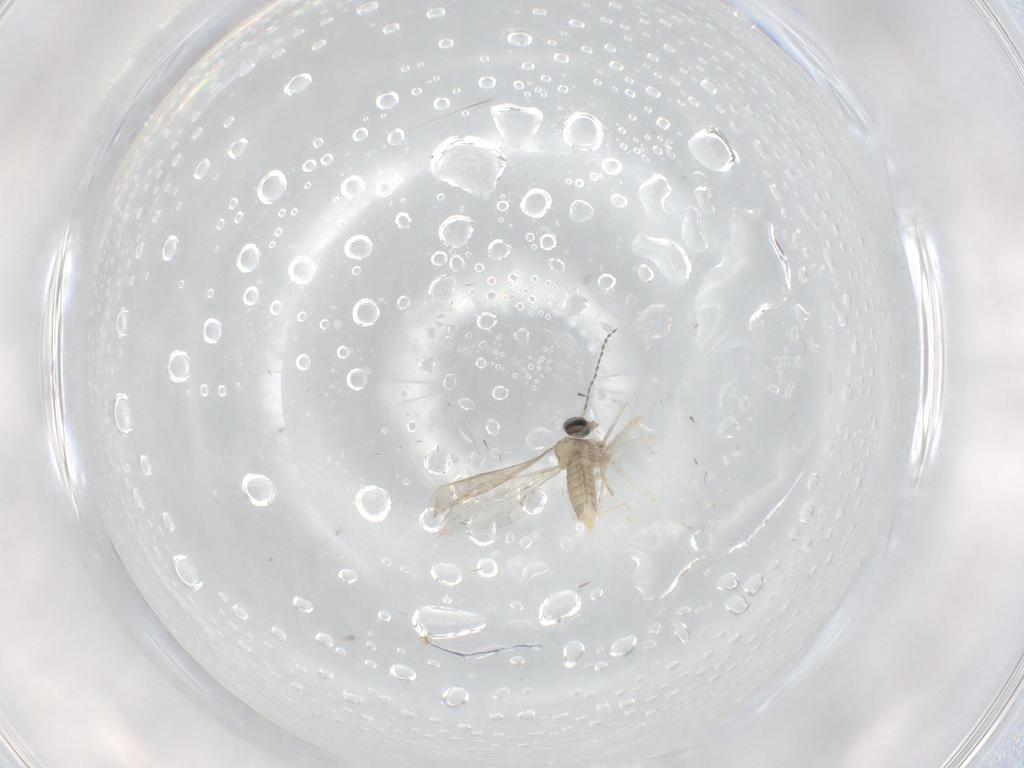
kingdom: Animalia
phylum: Arthropoda
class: Insecta
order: Diptera
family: Cecidomyiidae
